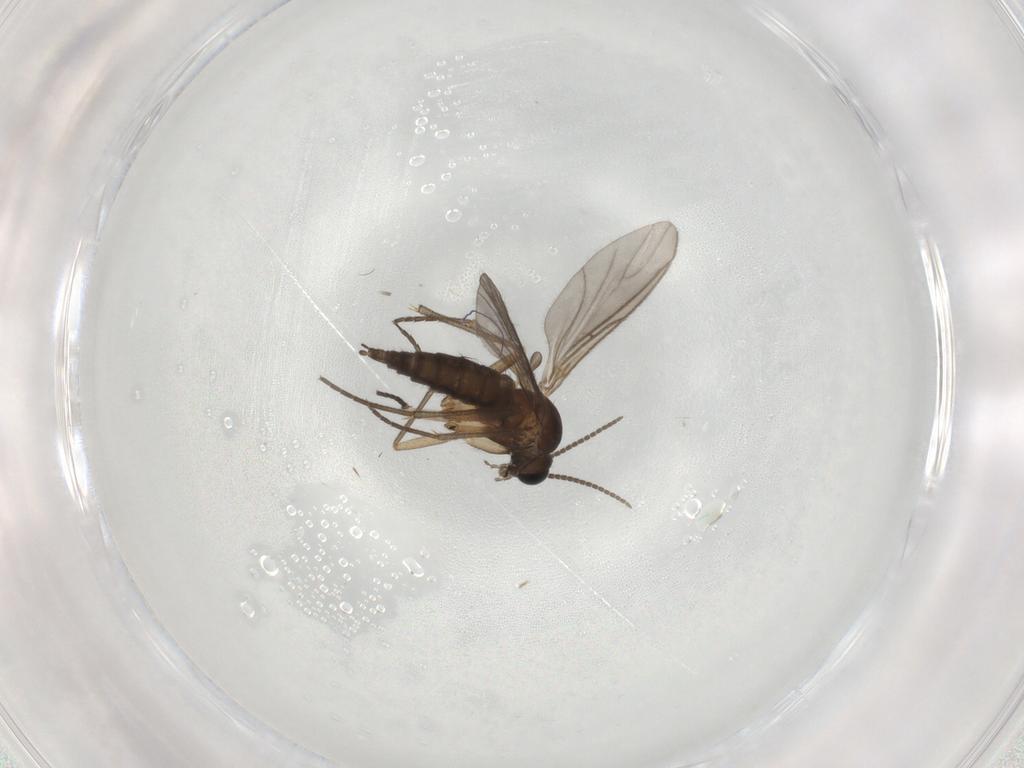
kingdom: Animalia
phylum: Arthropoda
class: Insecta
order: Diptera
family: Sciaridae
